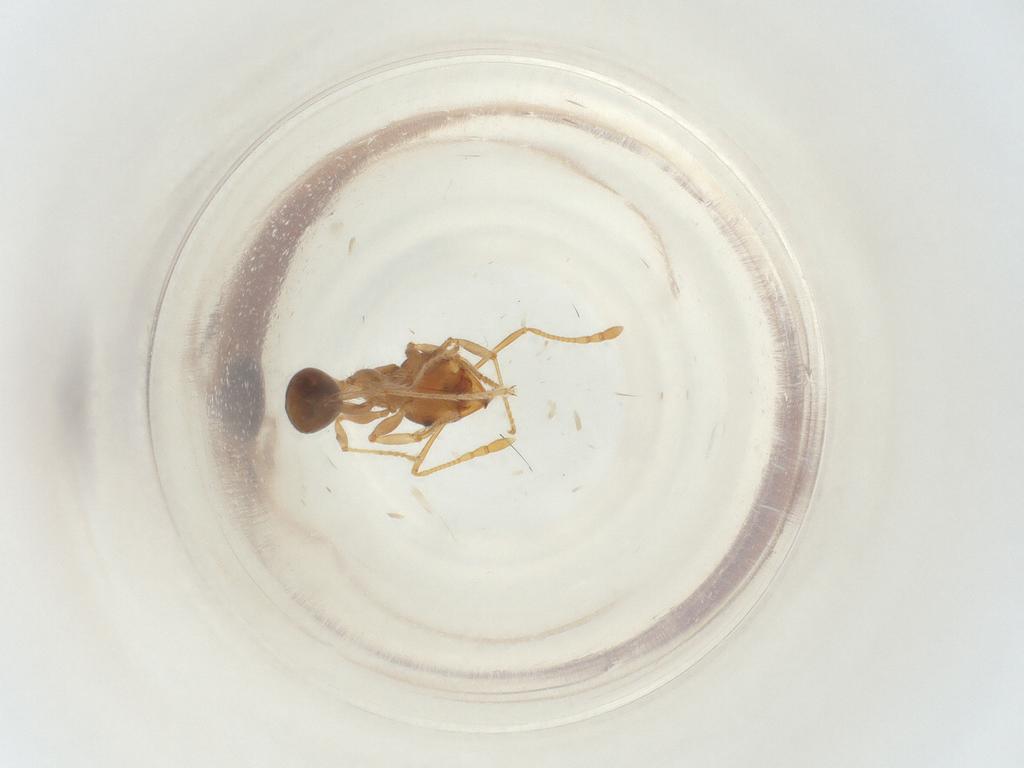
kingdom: Animalia
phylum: Arthropoda
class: Insecta
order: Hymenoptera
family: Formicidae
